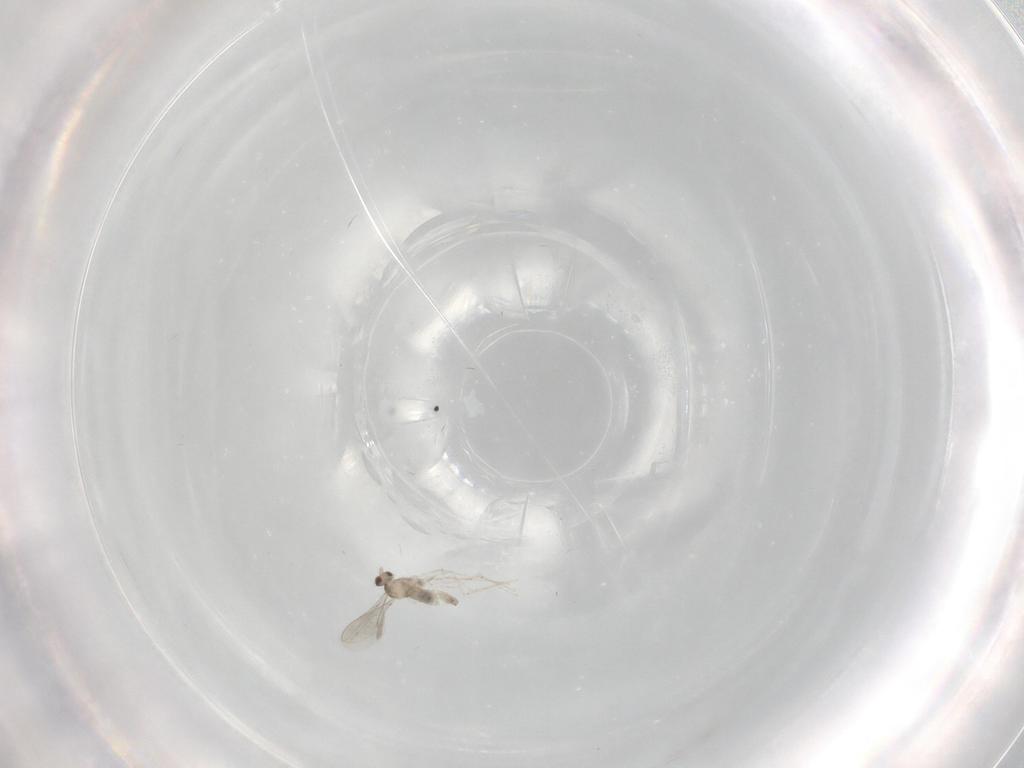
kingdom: Animalia
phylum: Arthropoda
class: Insecta
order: Diptera
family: Cecidomyiidae
